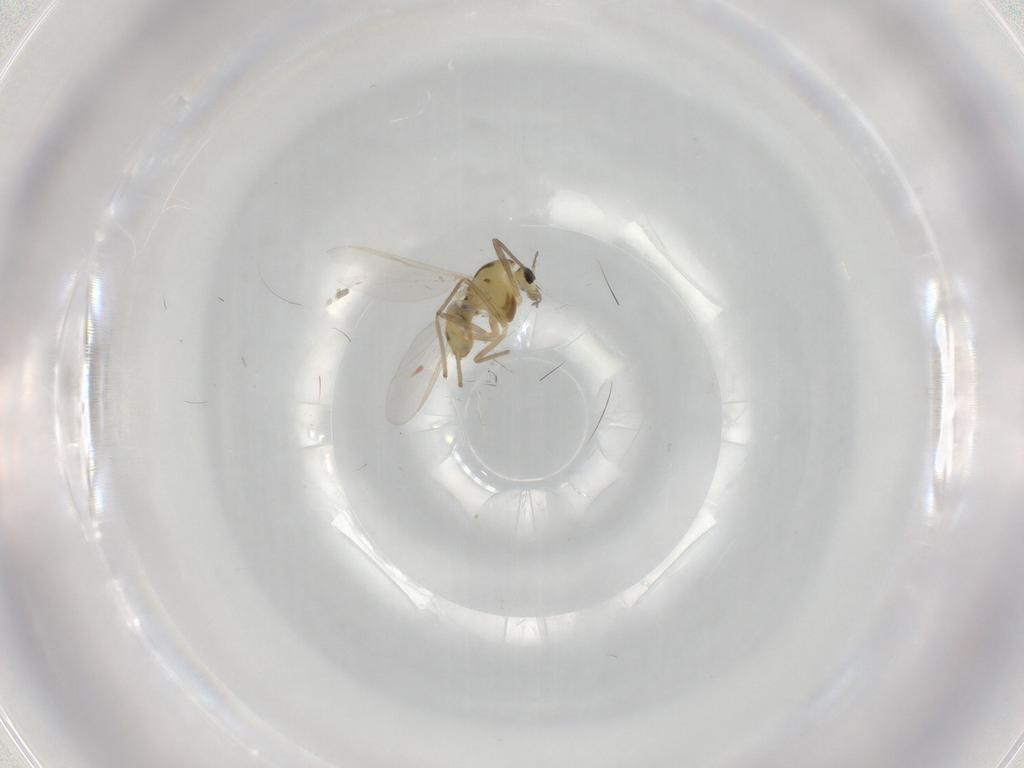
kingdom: Animalia
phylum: Arthropoda
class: Insecta
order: Diptera
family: Chironomidae
